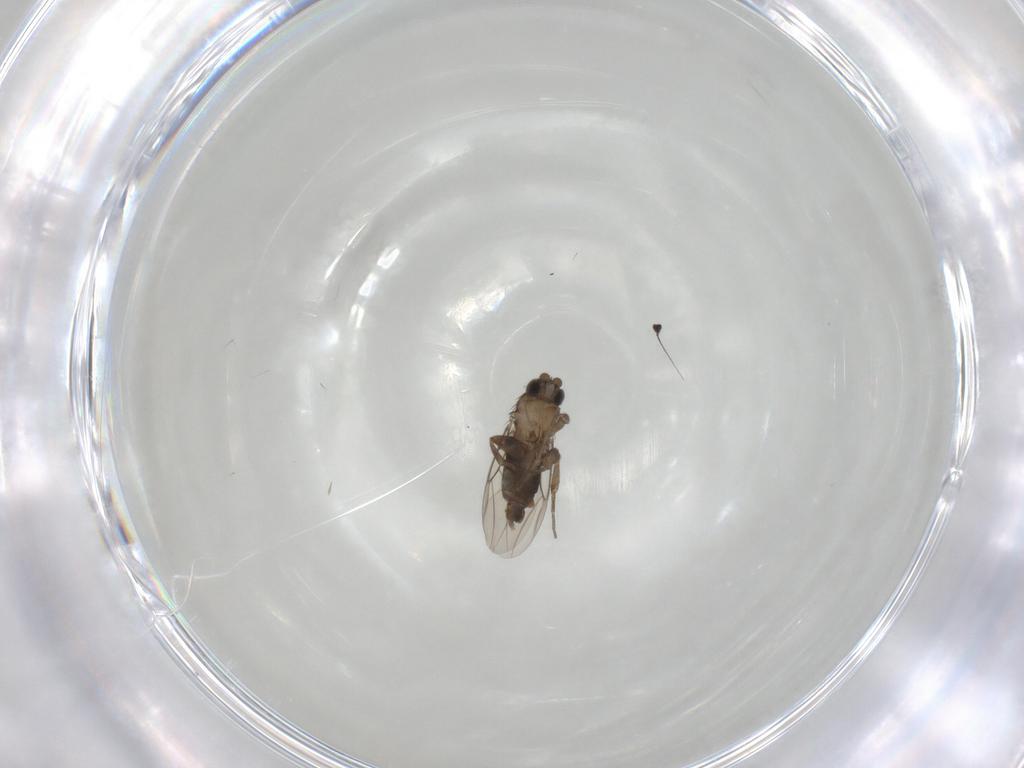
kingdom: Animalia
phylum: Arthropoda
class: Insecta
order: Diptera
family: Phoridae
